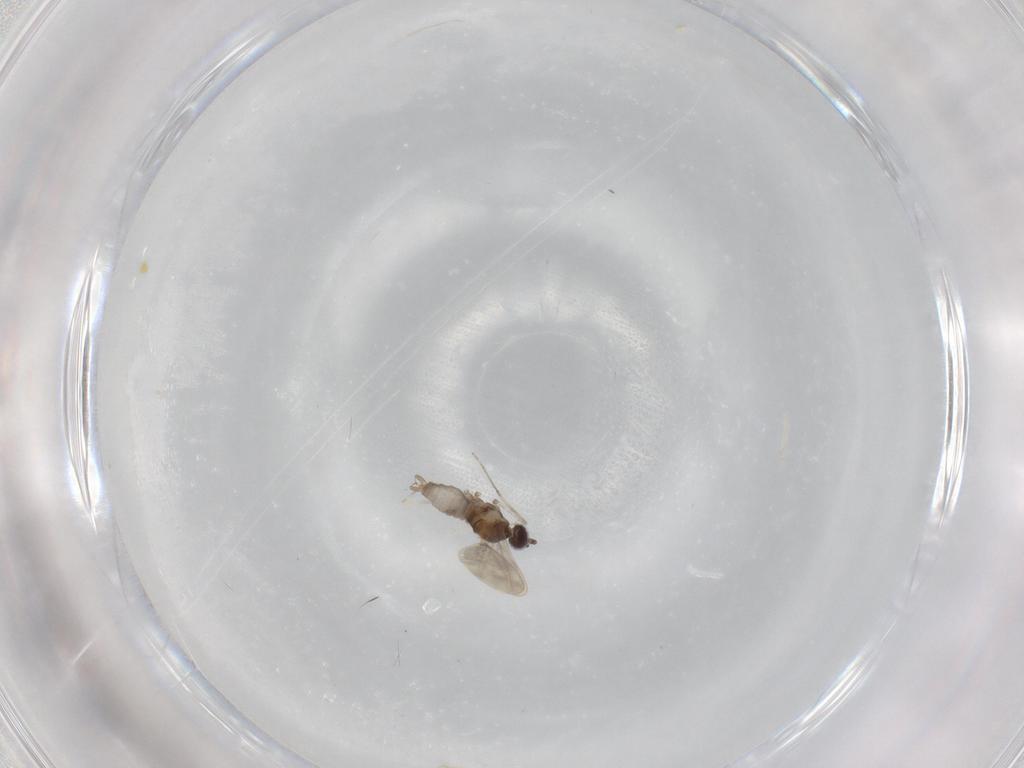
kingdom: Animalia
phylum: Arthropoda
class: Insecta
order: Diptera
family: Cecidomyiidae
